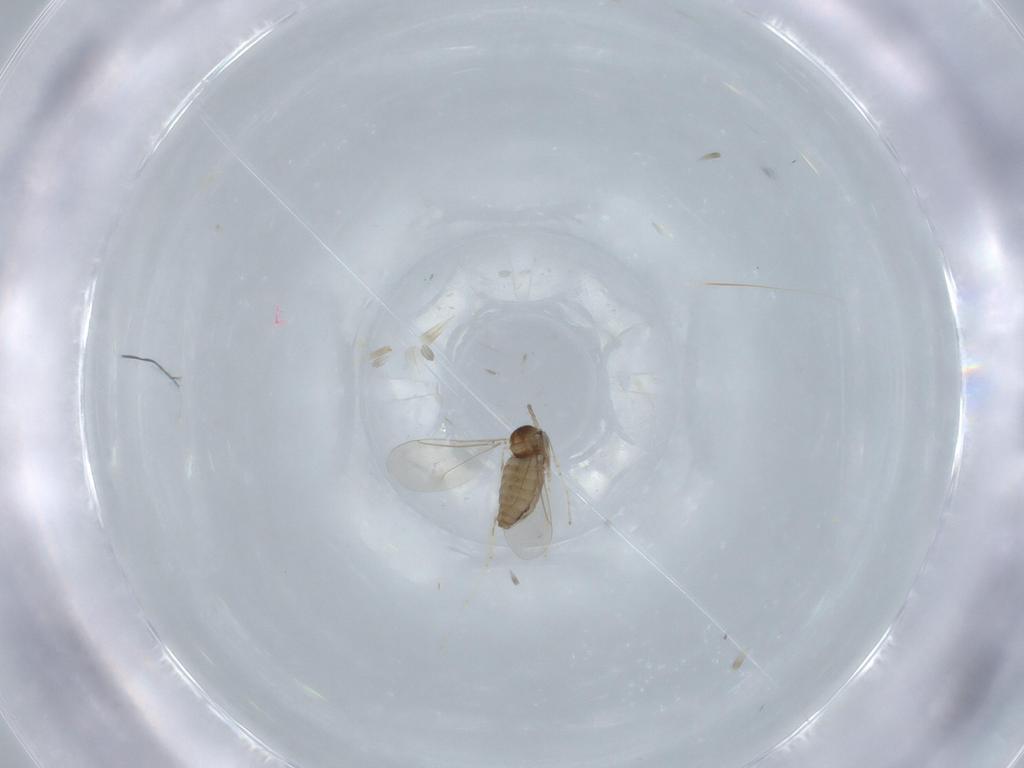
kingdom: Animalia
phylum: Arthropoda
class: Insecta
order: Diptera
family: Cecidomyiidae
